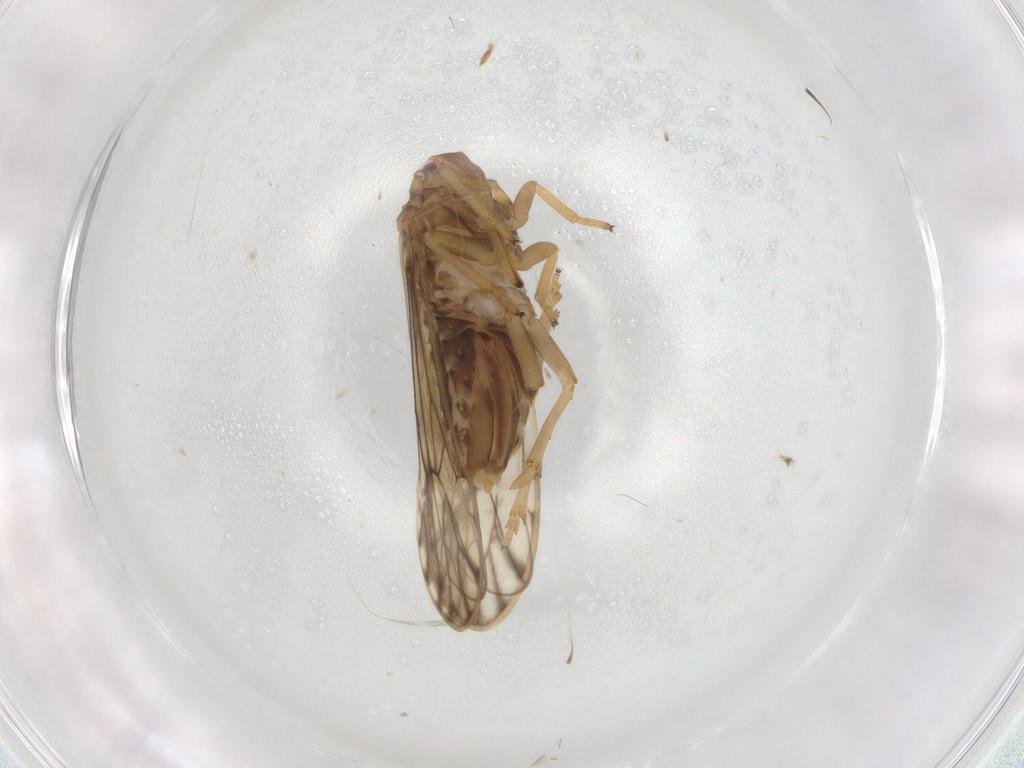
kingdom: Animalia
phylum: Arthropoda
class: Insecta
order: Hemiptera
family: Delphacidae
